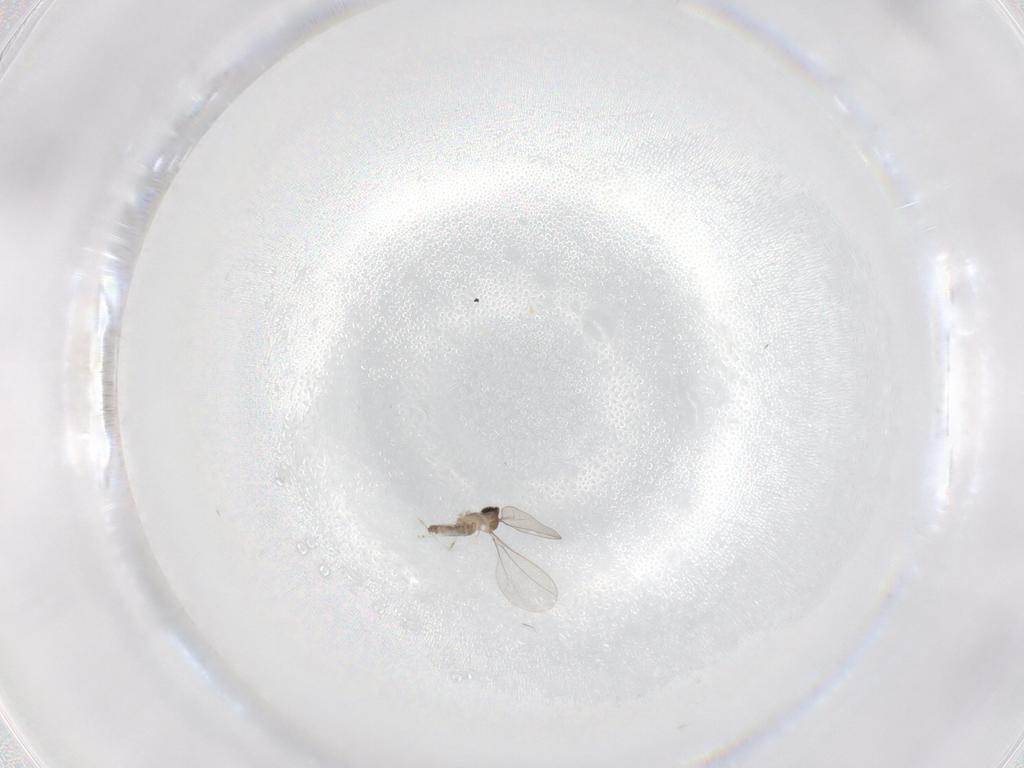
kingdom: Animalia
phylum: Arthropoda
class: Insecta
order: Diptera
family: Cecidomyiidae
